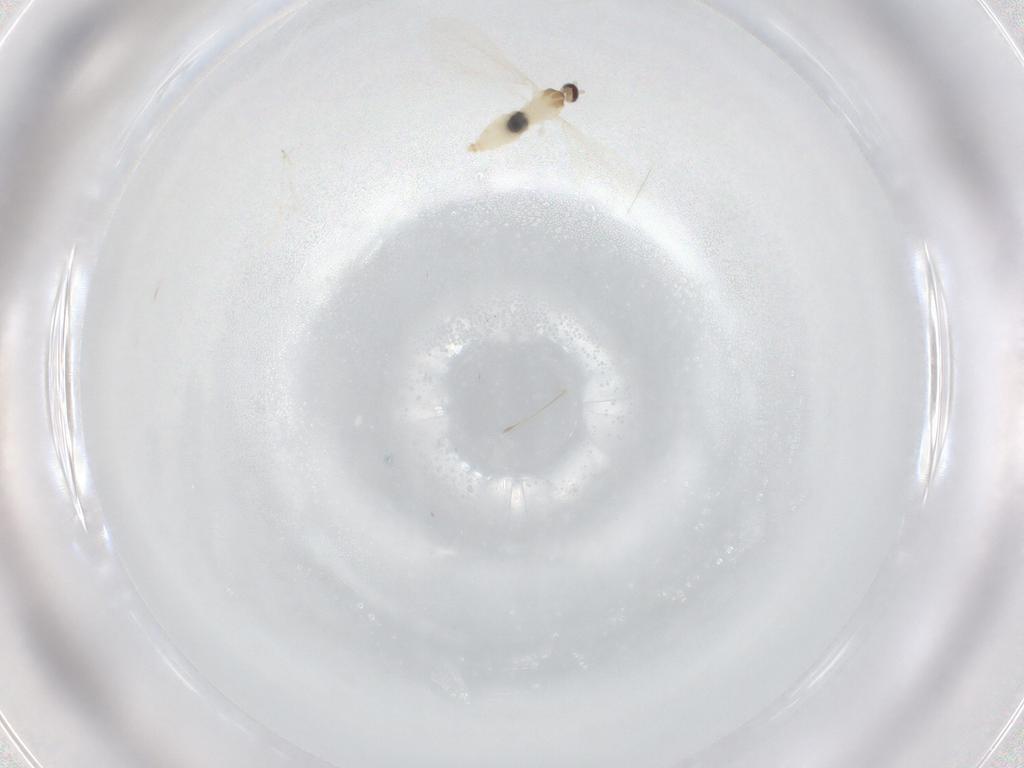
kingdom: Animalia
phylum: Arthropoda
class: Insecta
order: Diptera
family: Cecidomyiidae
